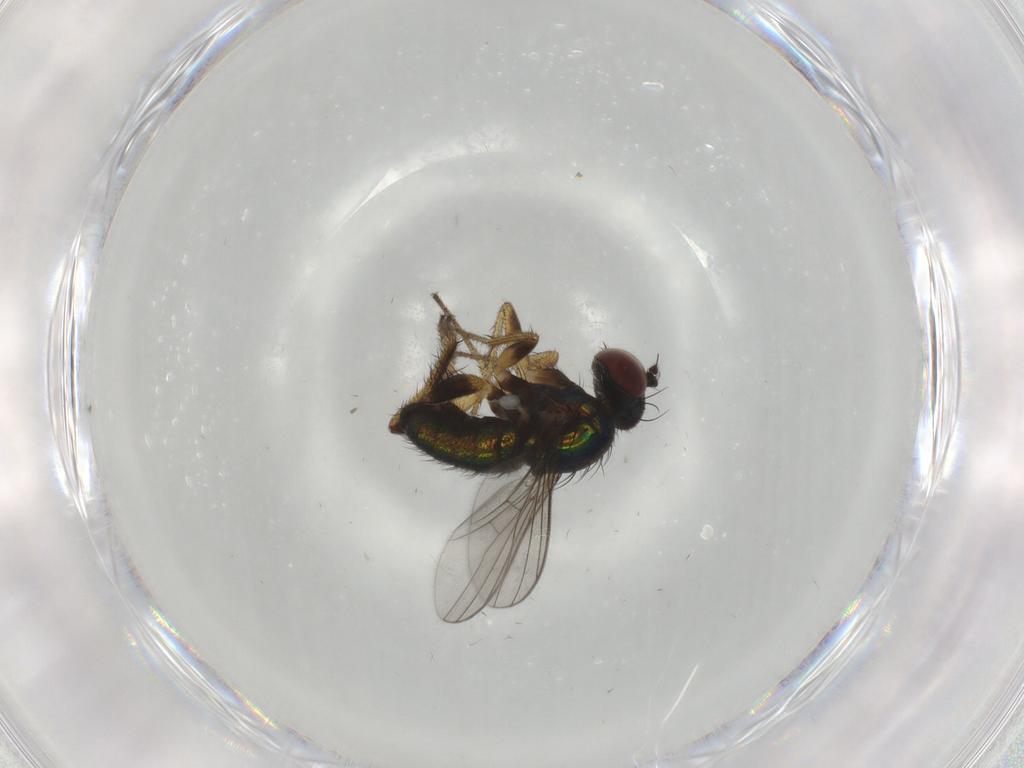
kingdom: Animalia
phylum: Arthropoda
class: Insecta
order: Diptera
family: Dolichopodidae
